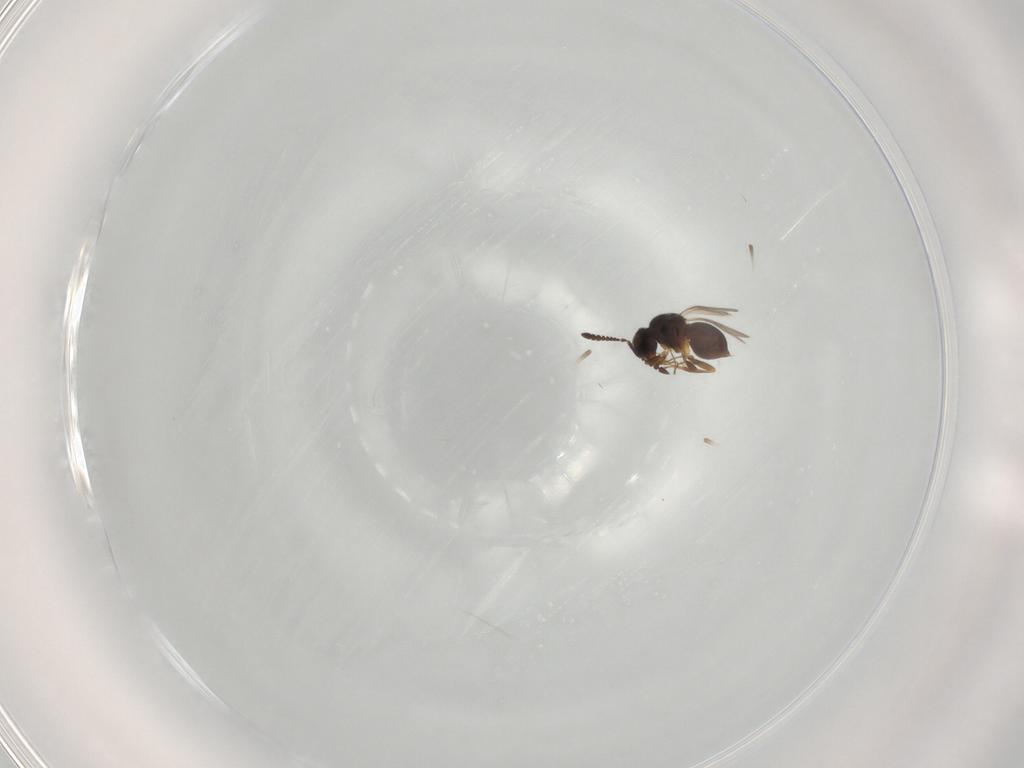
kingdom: Animalia
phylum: Arthropoda
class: Insecta
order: Hymenoptera
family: Ceraphronidae
